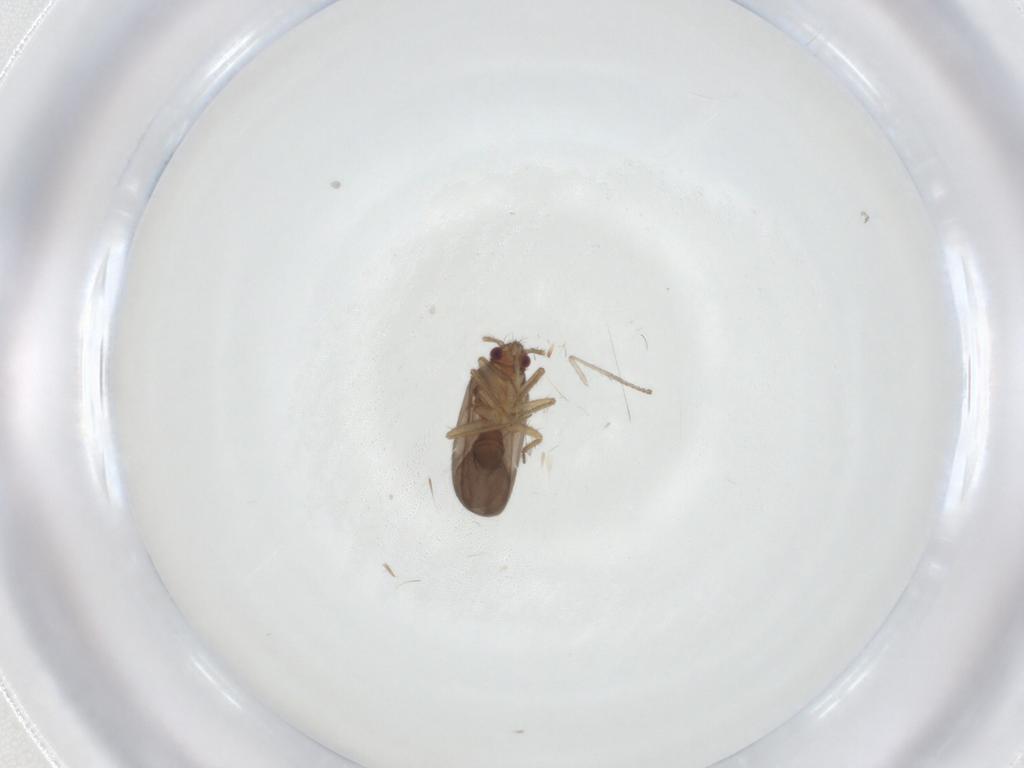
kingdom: Animalia
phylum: Arthropoda
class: Insecta
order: Hemiptera
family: Ceratocombidae
